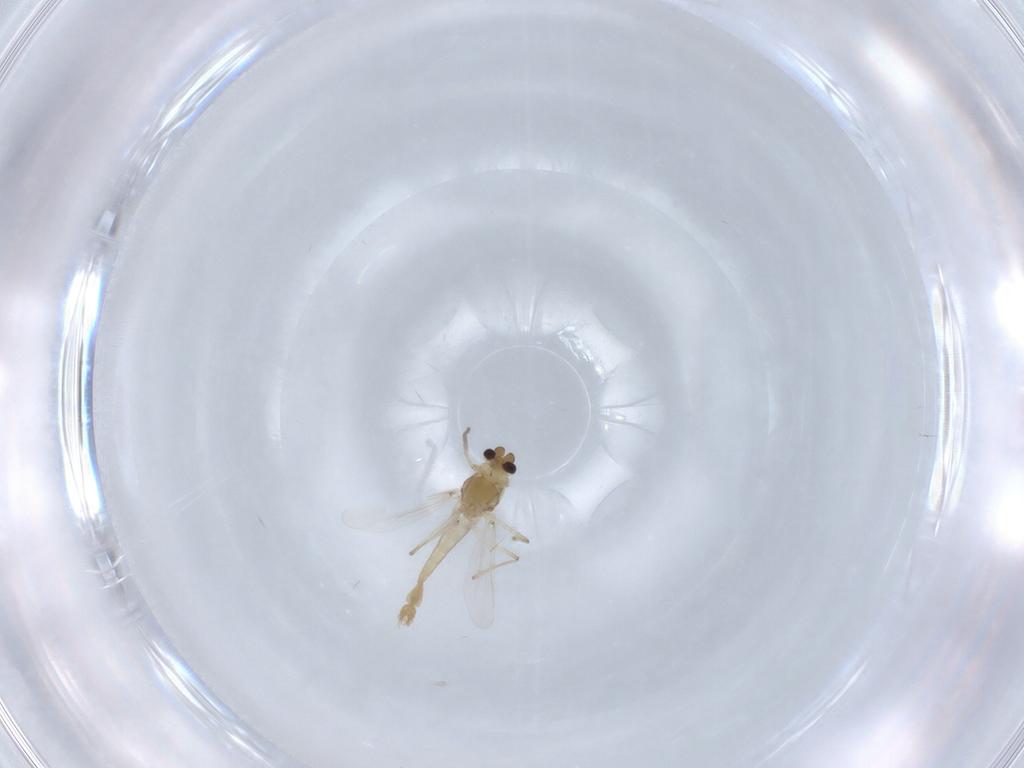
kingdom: Animalia
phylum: Arthropoda
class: Insecta
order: Diptera
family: Chironomidae
